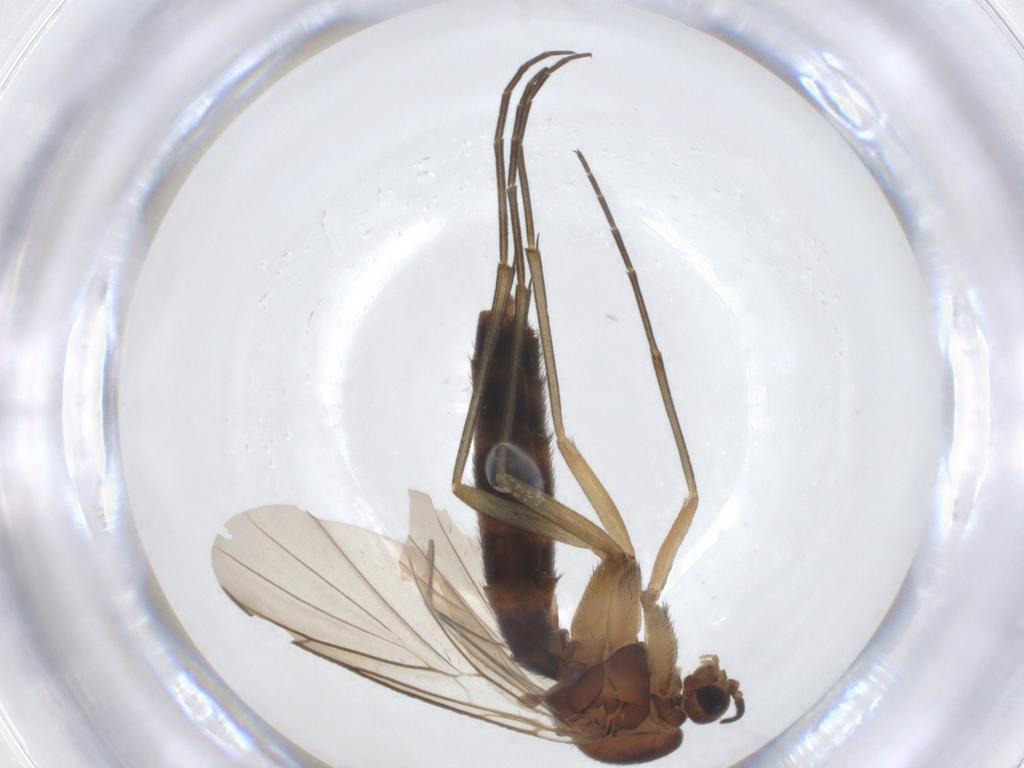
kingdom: Animalia
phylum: Arthropoda
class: Insecta
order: Diptera
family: Keroplatidae
